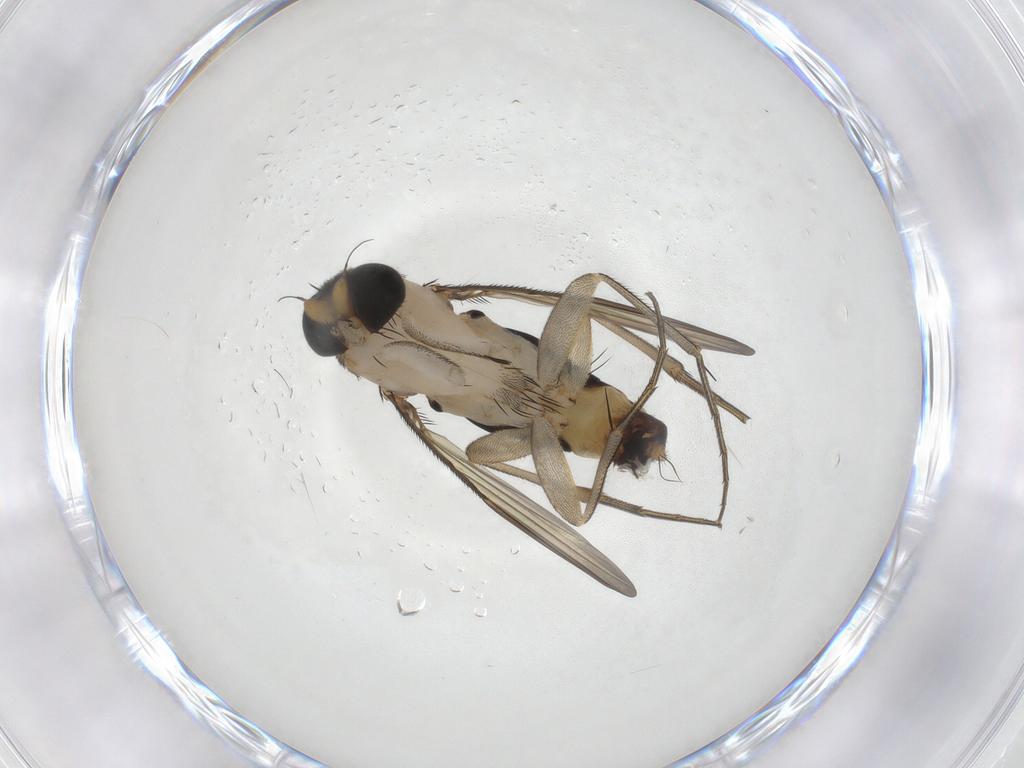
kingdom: Animalia
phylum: Arthropoda
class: Insecta
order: Diptera
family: Phoridae
